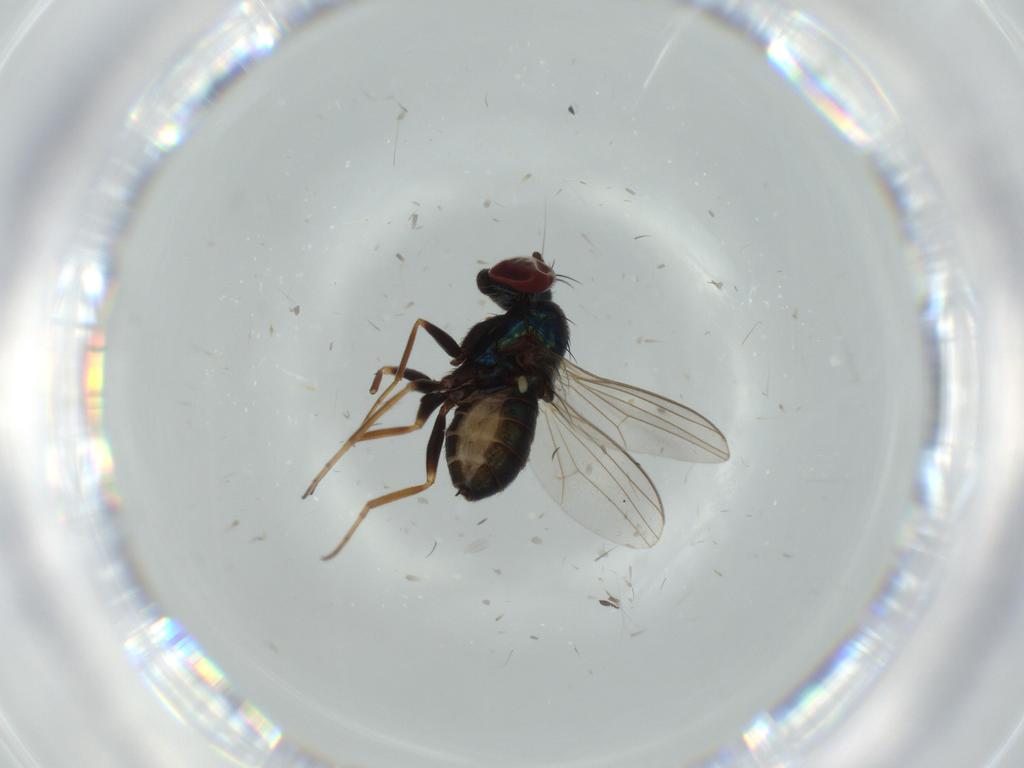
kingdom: Animalia
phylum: Arthropoda
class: Insecta
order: Diptera
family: Dolichopodidae
